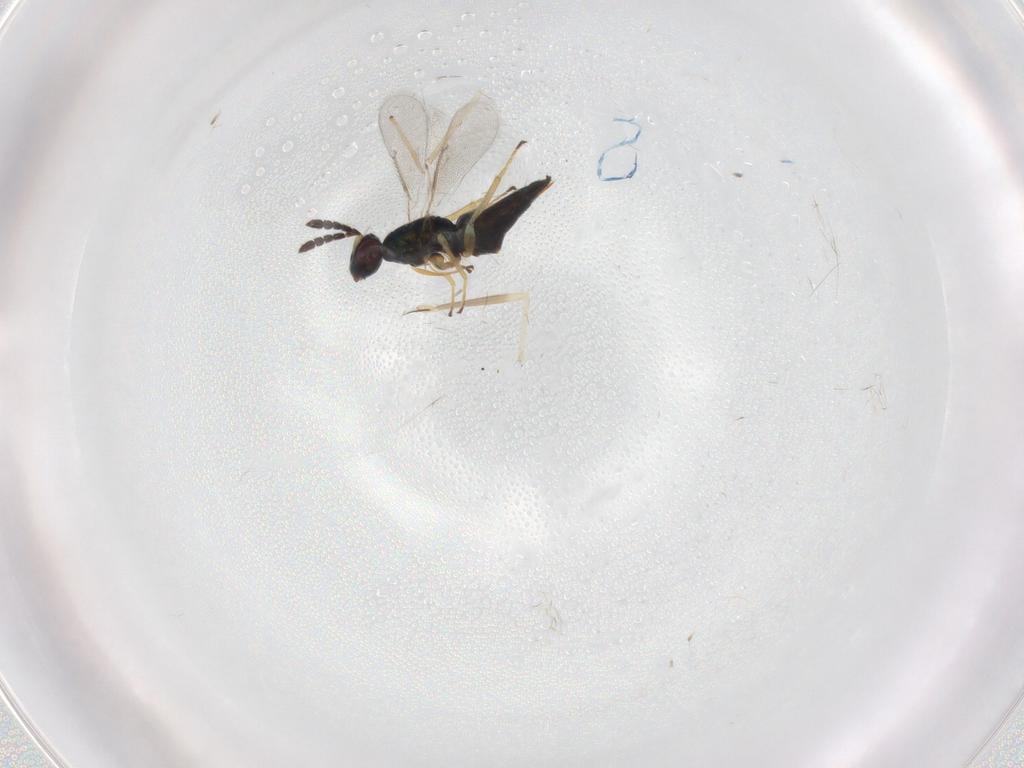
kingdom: Animalia
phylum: Arthropoda
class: Insecta
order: Hymenoptera
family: Eulophidae
